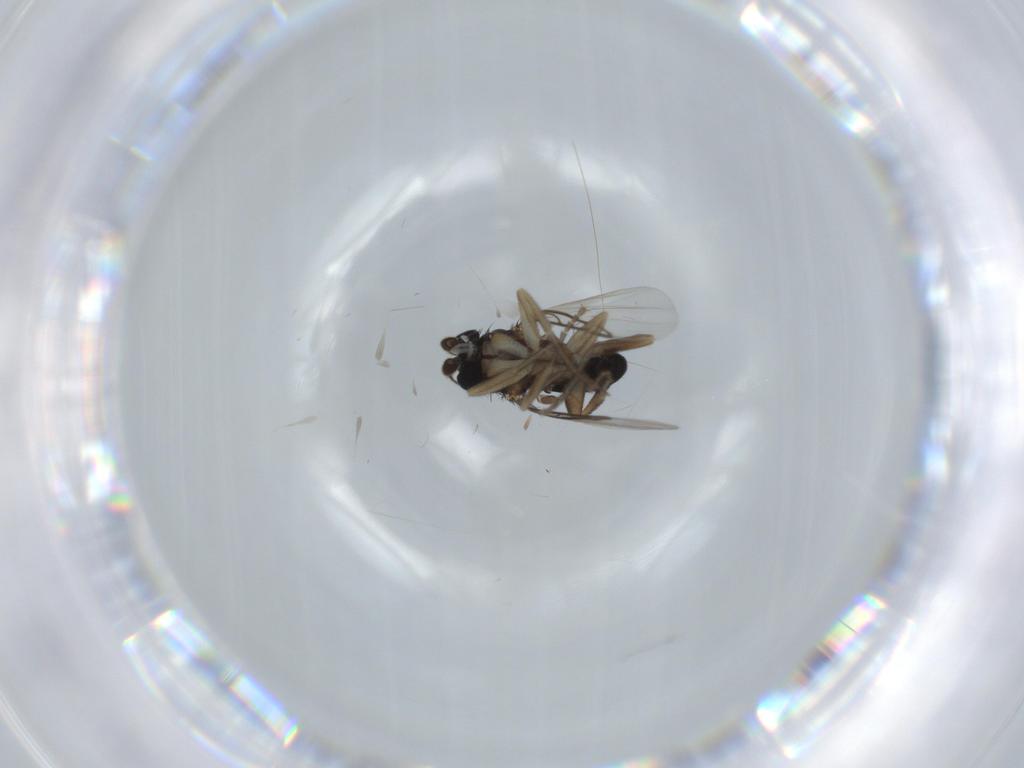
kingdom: Animalia
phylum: Arthropoda
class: Insecta
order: Diptera
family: Phoridae
